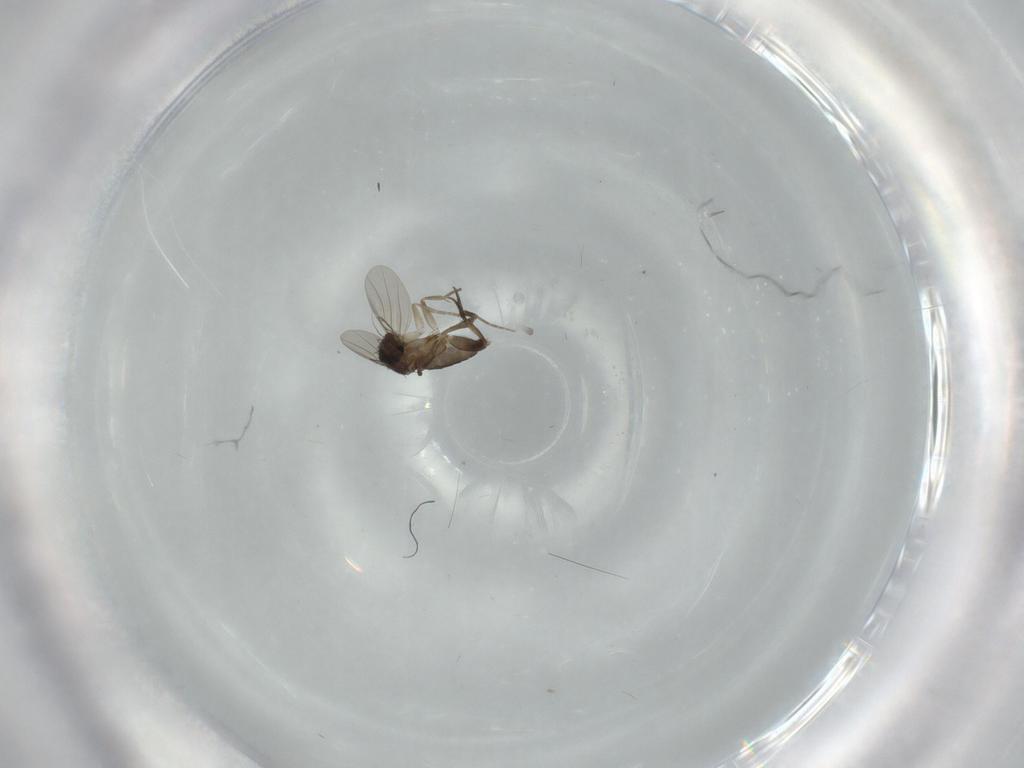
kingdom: Animalia
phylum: Arthropoda
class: Insecta
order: Diptera
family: Phoridae
